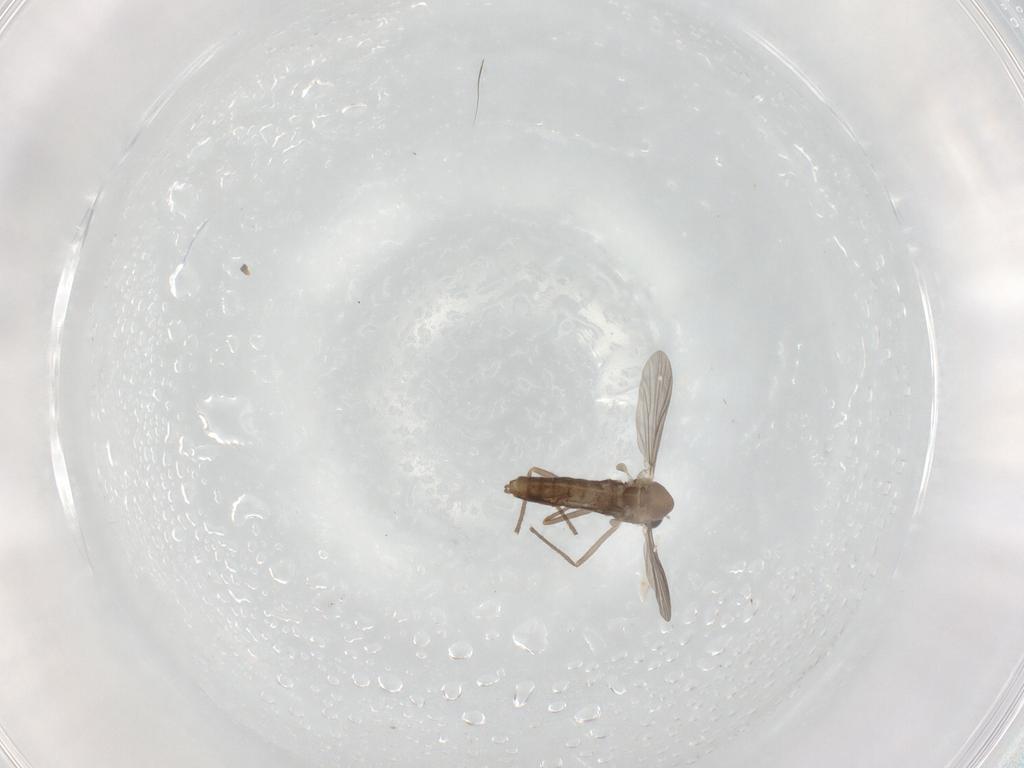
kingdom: Animalia
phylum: Arthropoda
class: Insecta
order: Diptera
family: Chironomidae
